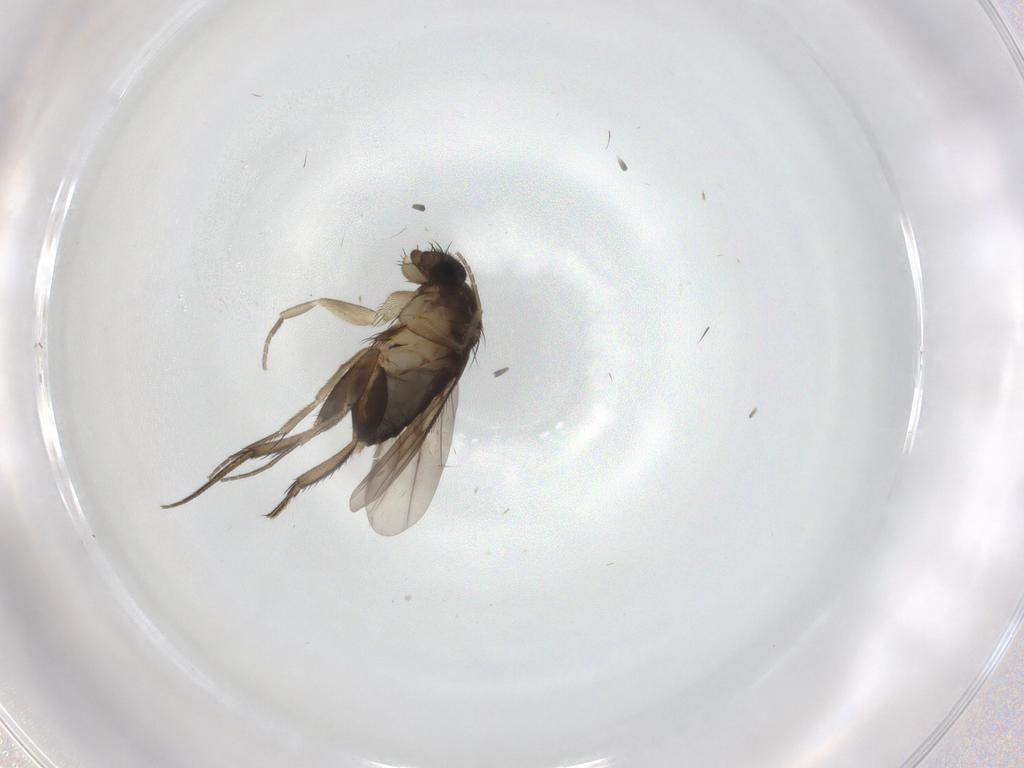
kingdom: Animalia
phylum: Arthropoda
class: Insecta
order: Diptera
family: Phoridae
